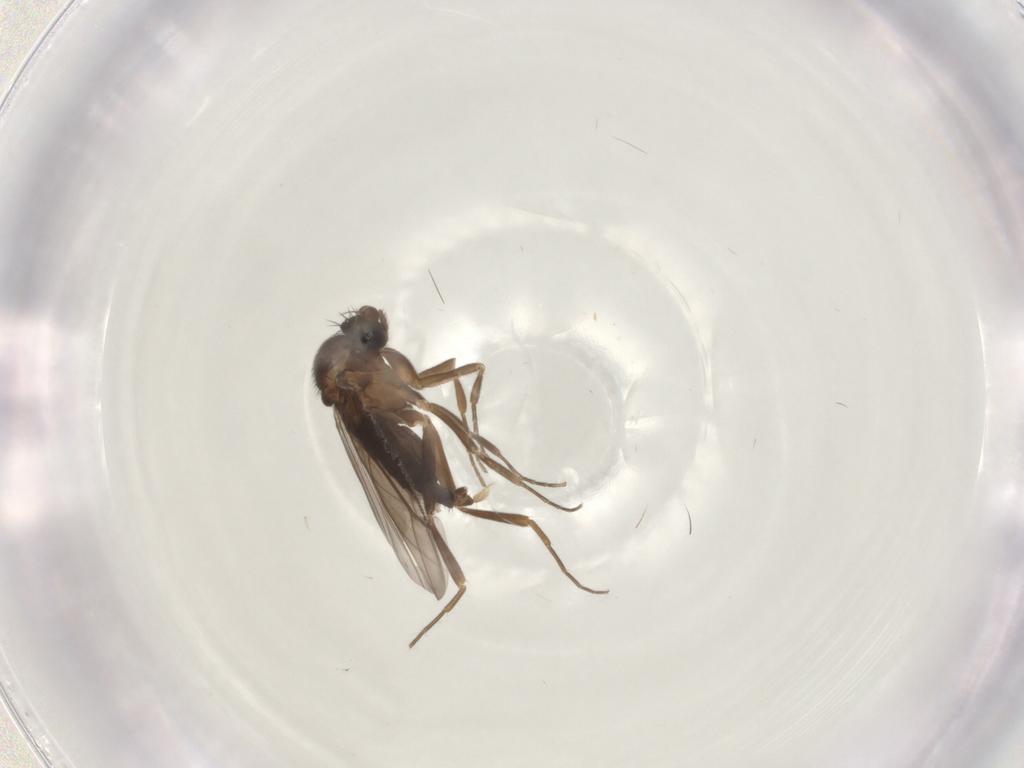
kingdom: Animalia
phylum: Arthropoda
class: Insecta
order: Diptera
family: Phoridae
